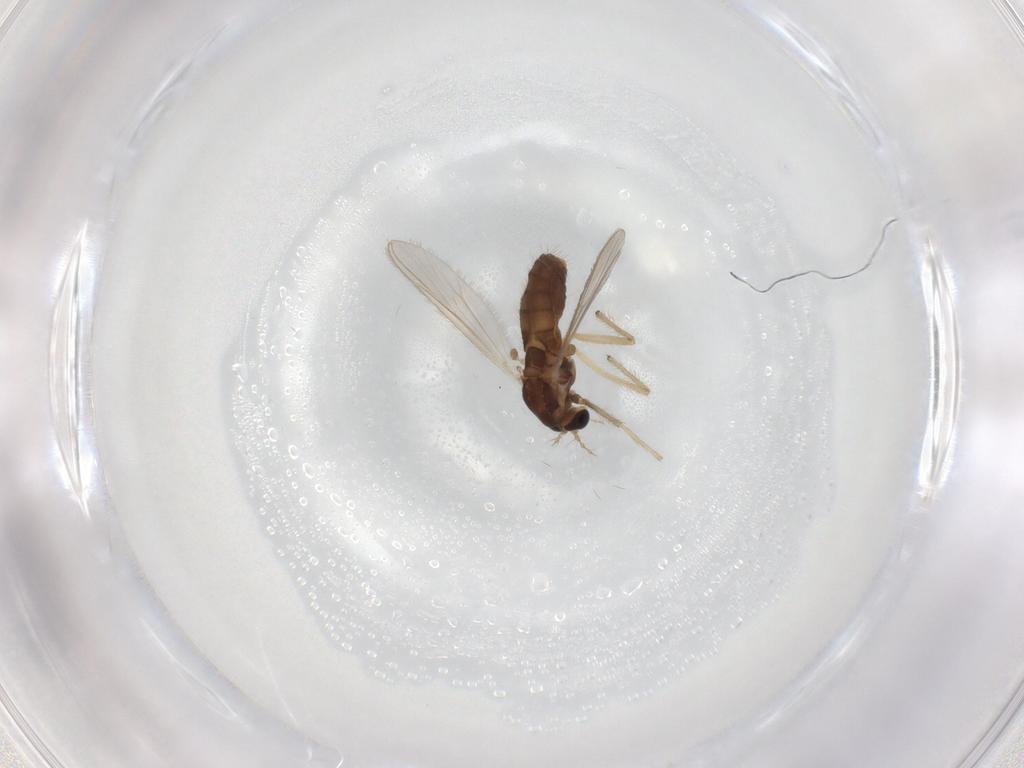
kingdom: Animalia
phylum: Arthropoda
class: Insecta
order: Diptera
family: Chironomidae
